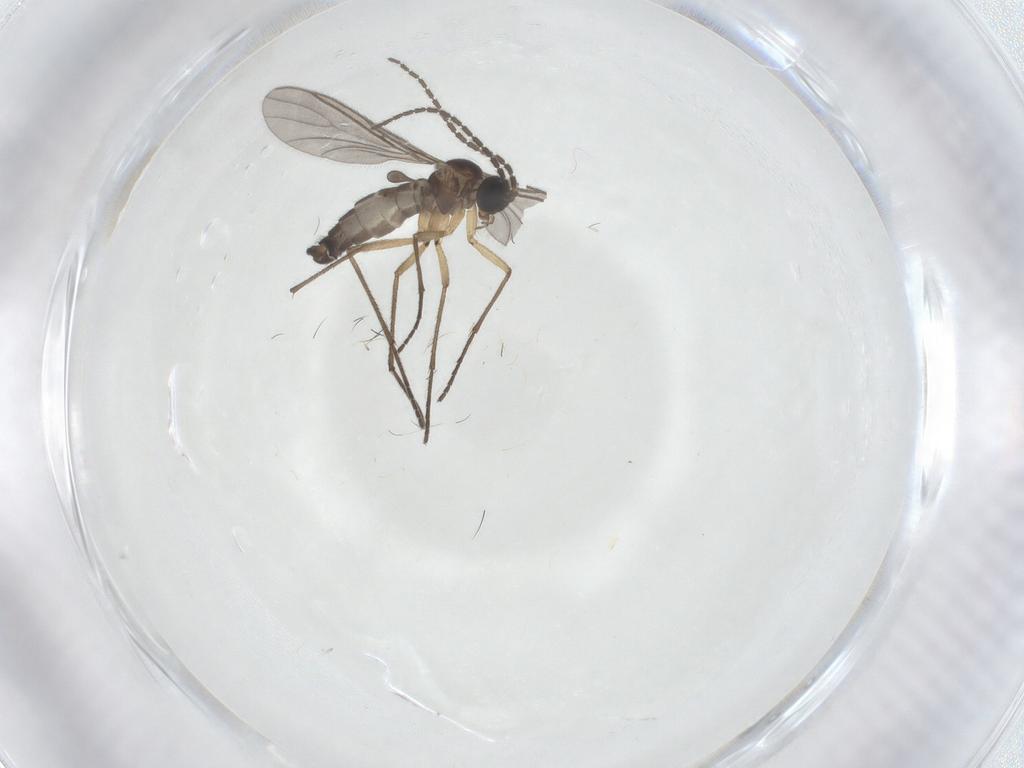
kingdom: Animalia
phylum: Arthropoda
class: Insecta
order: Diptera
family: Sciaridae
